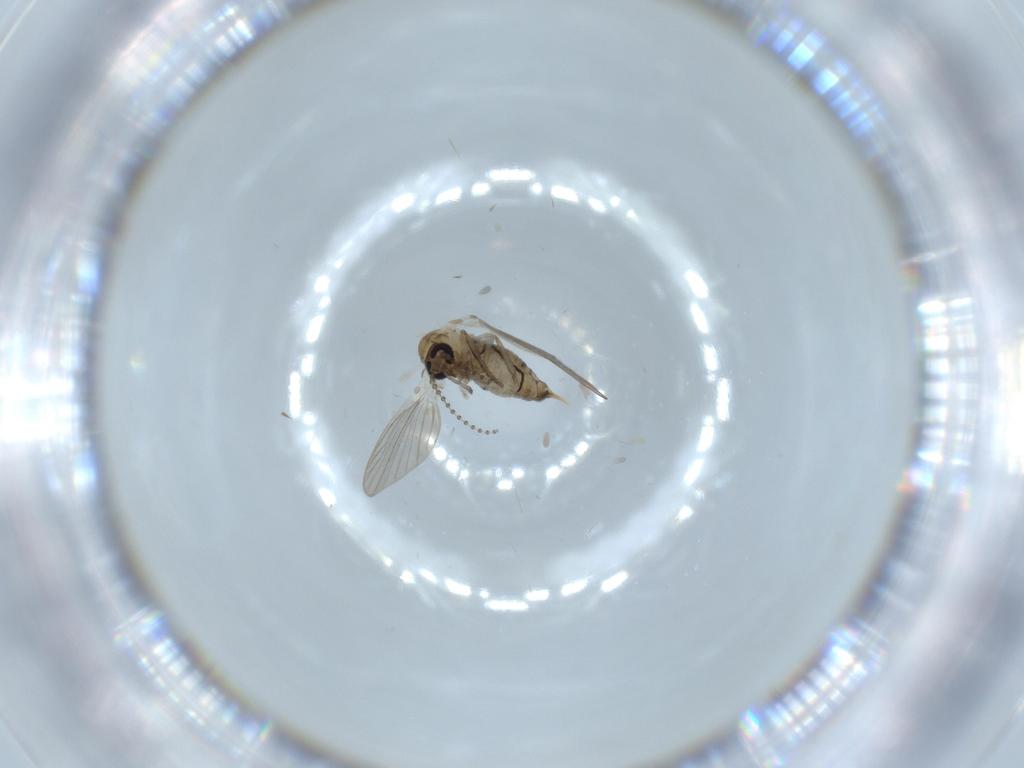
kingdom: Animalia
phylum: Arthropoda
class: Insecta
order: Diptera
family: Psychodidae
